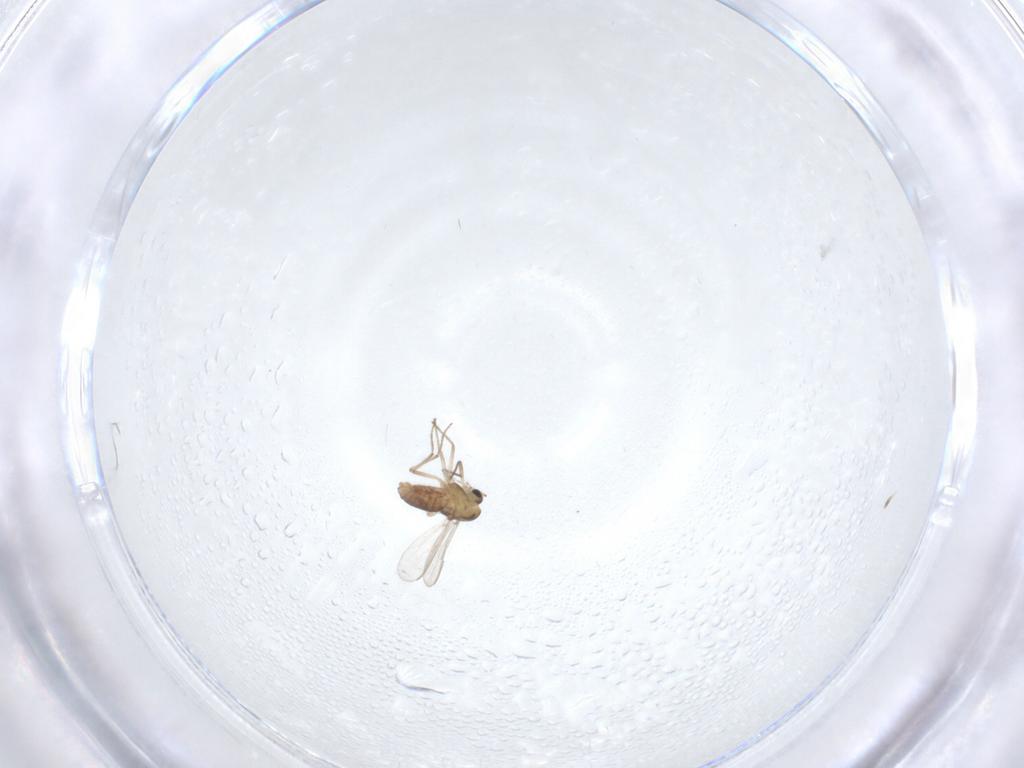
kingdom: Animalia
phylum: Arthropoda
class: Insecta
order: Diptera
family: Chironomidae
